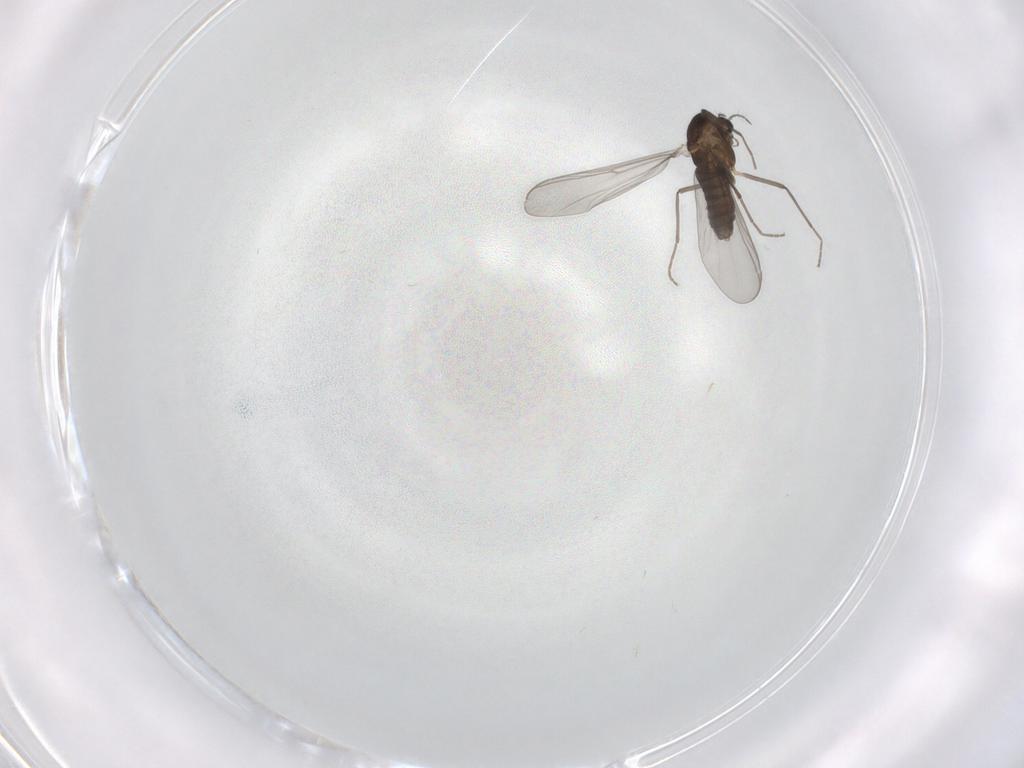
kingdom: Animalia
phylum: Arthropoda
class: Insecta
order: Diptera
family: Chironomidae
